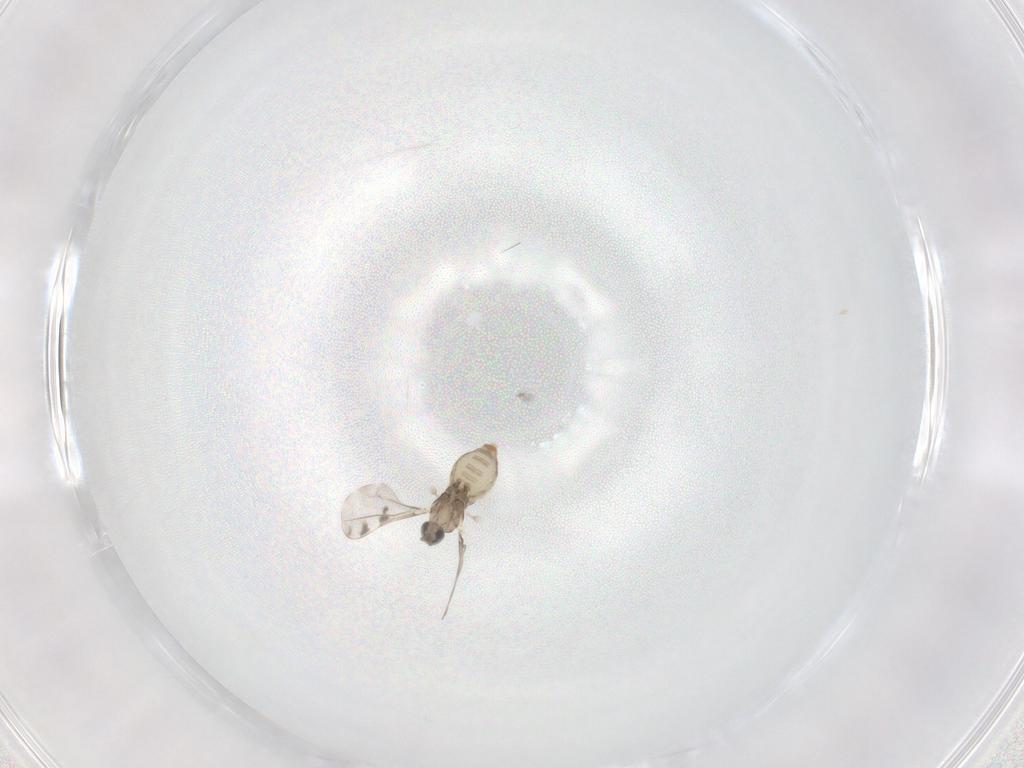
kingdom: Animalia
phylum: Arthropoda
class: Insecta
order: Diptera
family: Cecidomyiidae
